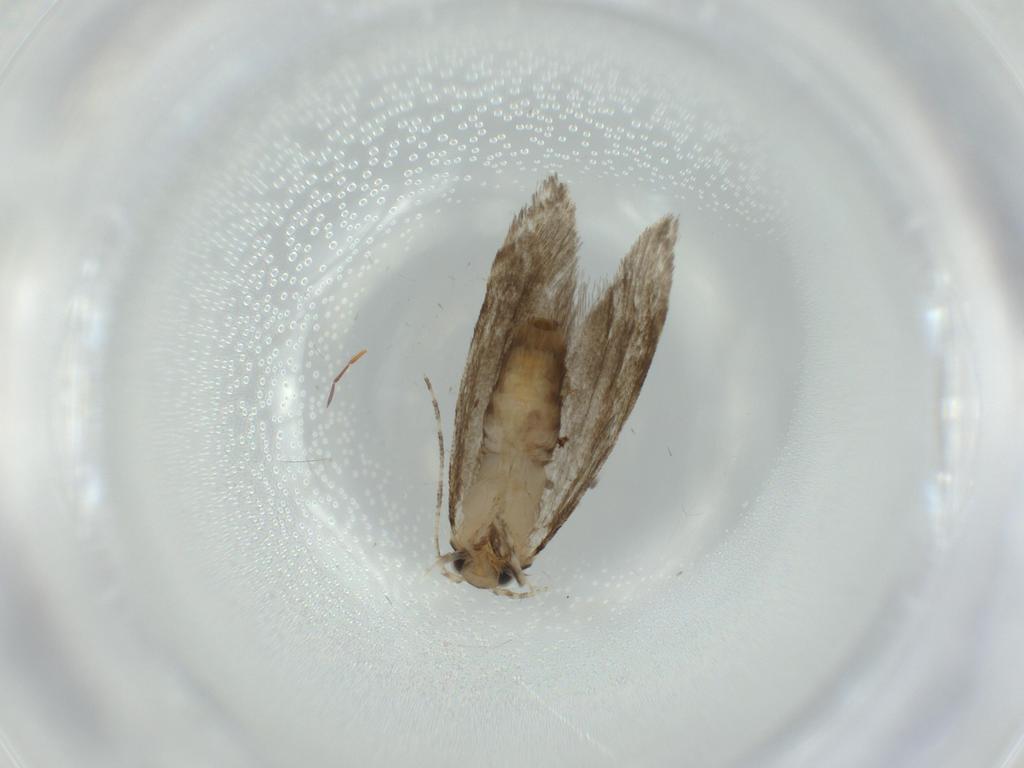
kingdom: Animalia
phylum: Arthropoda
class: Insecta
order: Lepidoptera
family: Tineidae
